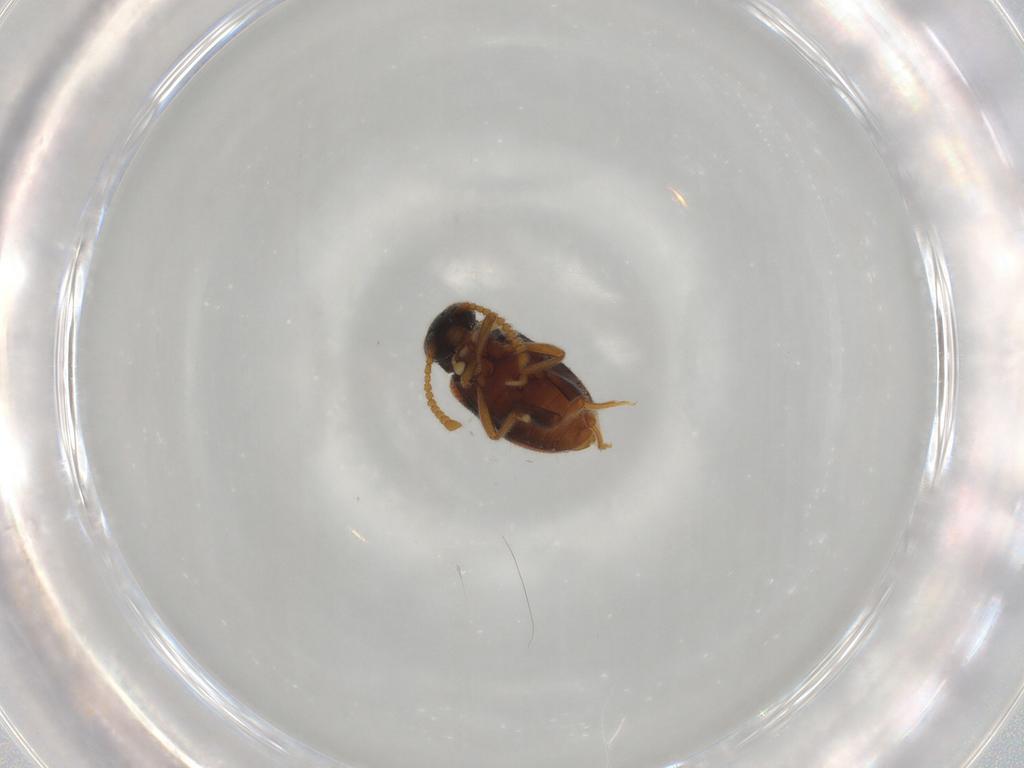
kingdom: Animalia
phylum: Arthropoda
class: Insecta
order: Coleoptera
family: Aderidae
